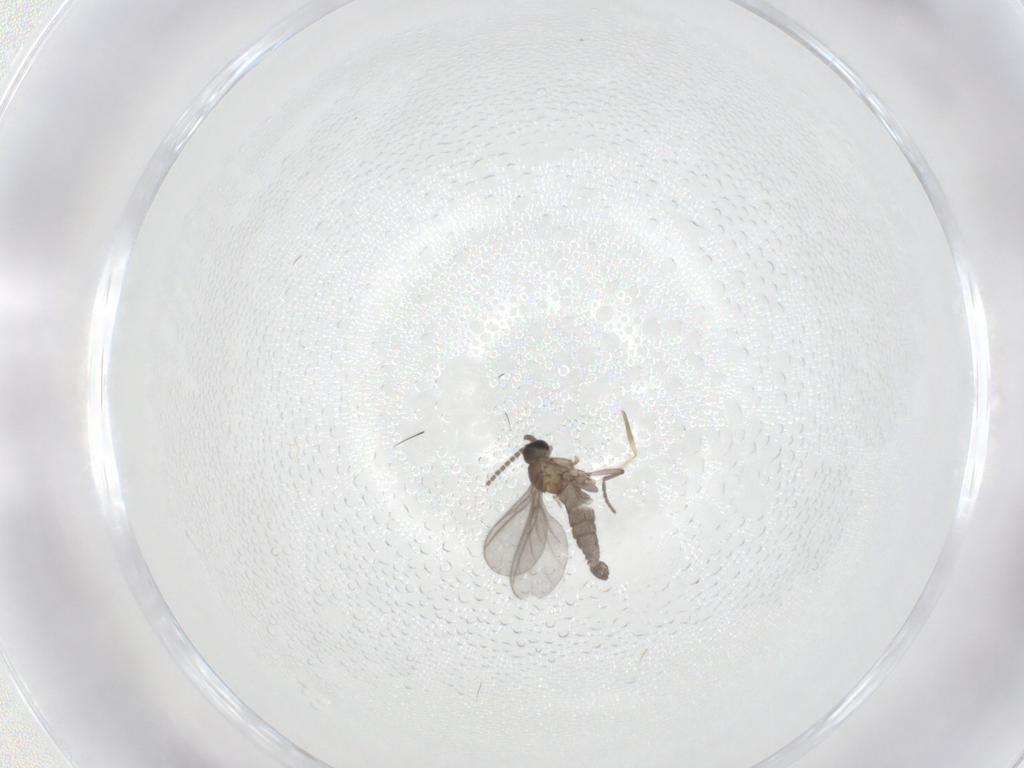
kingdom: Animalia
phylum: Arthropoda
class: Insecta
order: Diptera
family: Sciaridae
